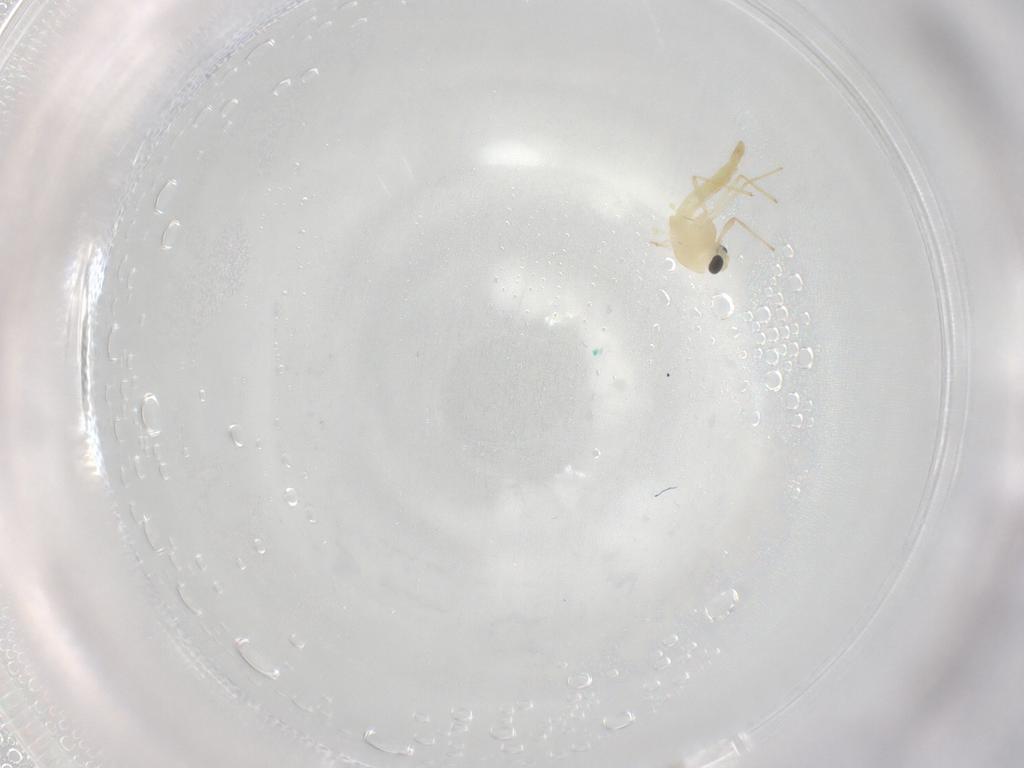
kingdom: Animalia
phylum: Arthropoda
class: Insecta
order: Diptera
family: Chironomidae
